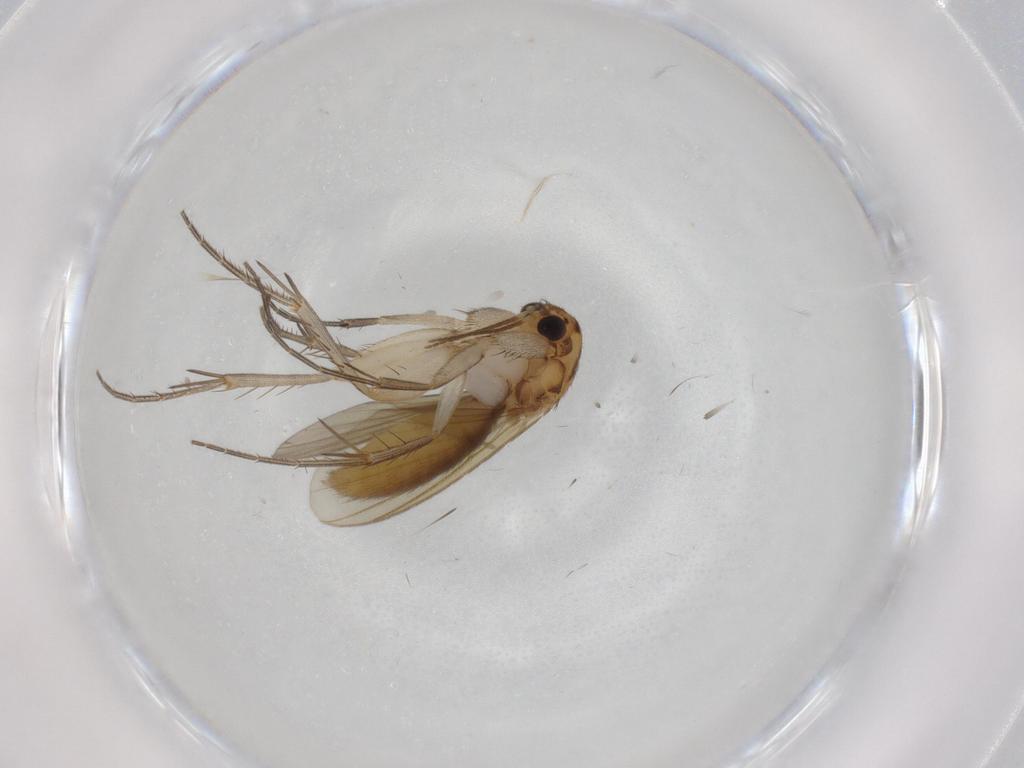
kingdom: Animalia
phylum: Arthropoda
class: Insecta
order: Diptera
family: Mycetophilidae
